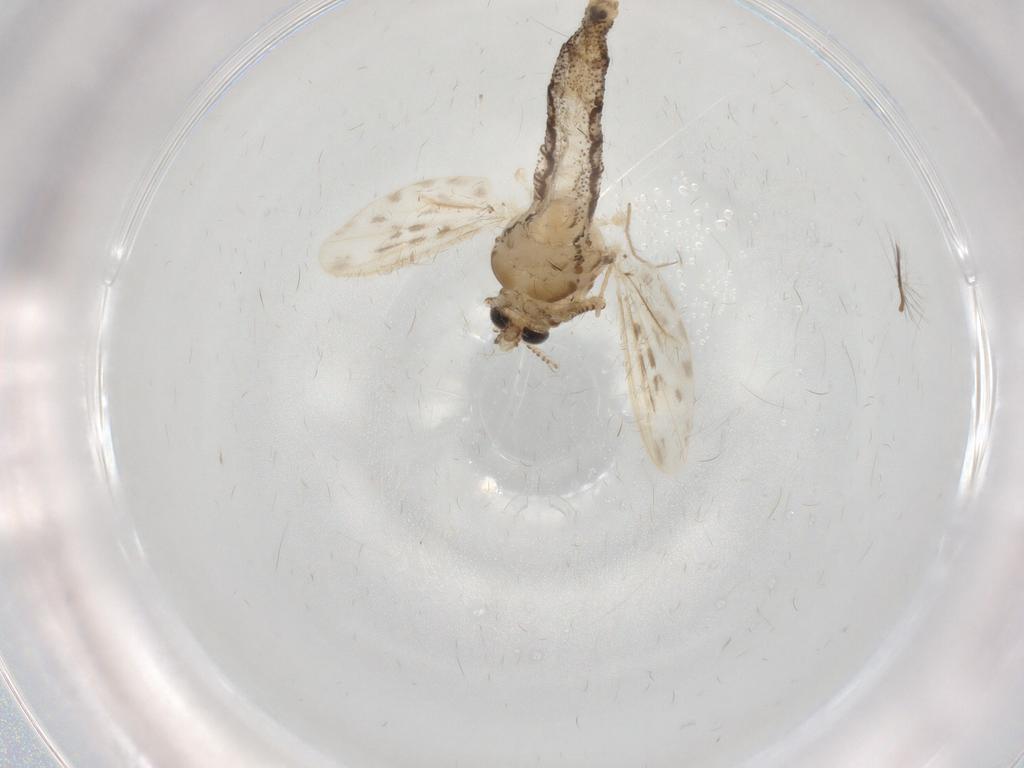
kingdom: Animalia
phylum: Arthropoda
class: Insecta
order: Diptera
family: Chaoboridae
